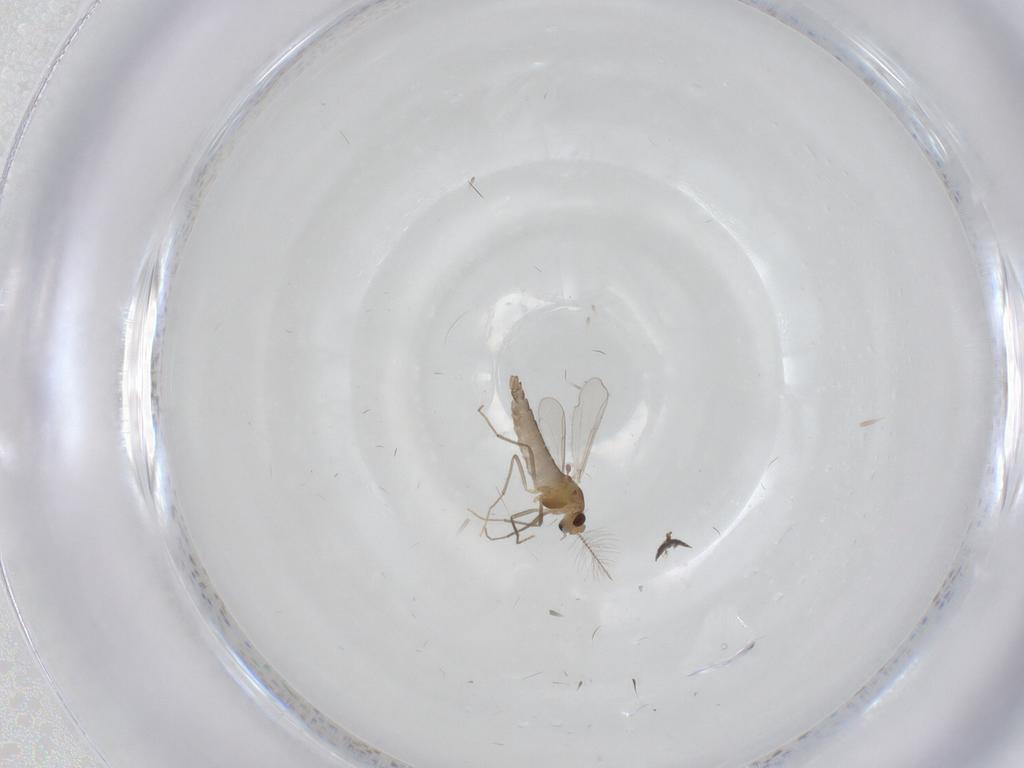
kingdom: Animalia
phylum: Arthropoda
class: Insecta
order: Diptera
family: Chironomidae
